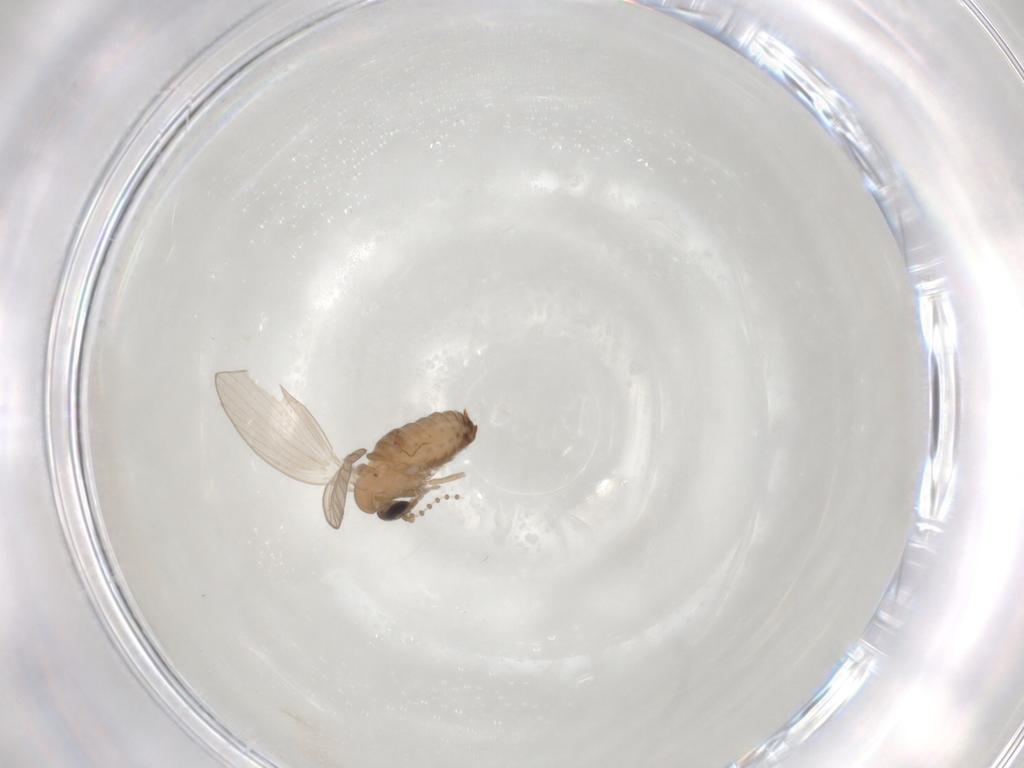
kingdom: Animalia
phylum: Arthropoda
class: Insecta
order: Diptera
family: Psychodidae
